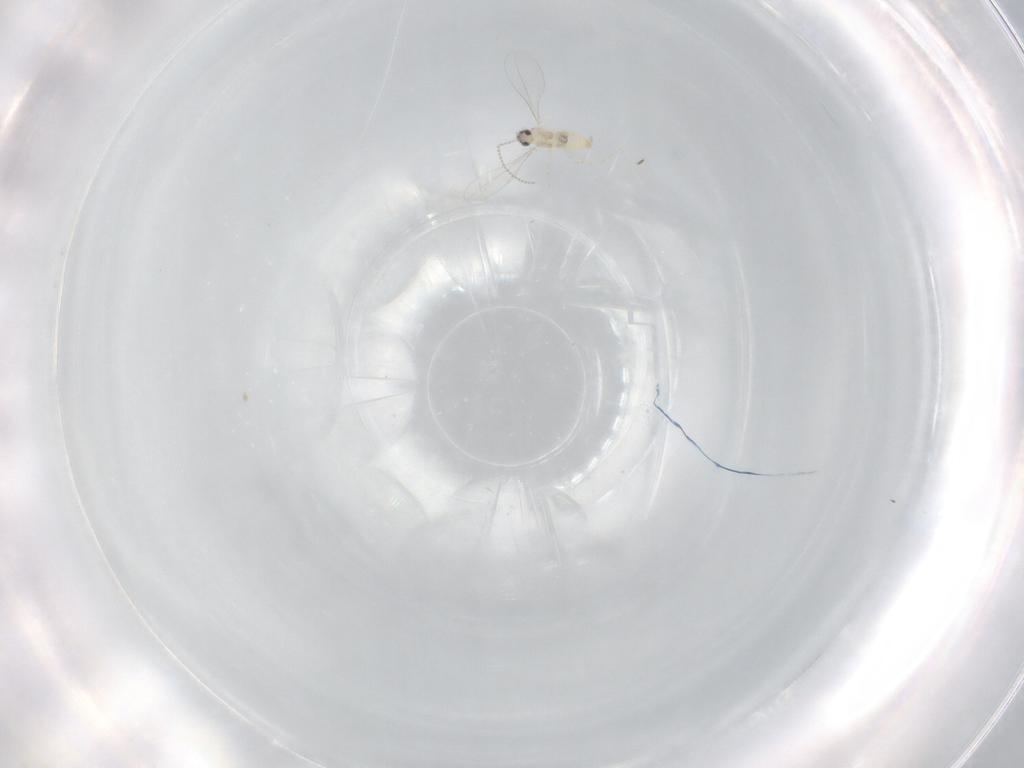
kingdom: Animalia
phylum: Arthropoda
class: Insecta
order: Diptera
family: Cecidomyiidae
